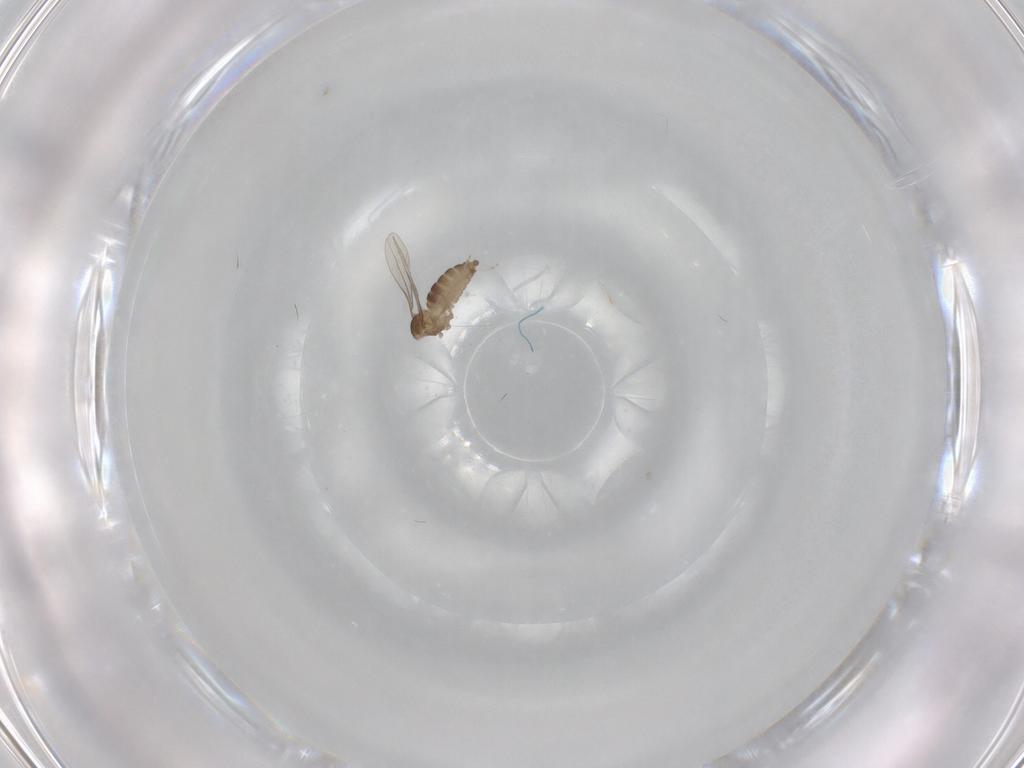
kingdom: Animalia
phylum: Arthropoda
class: Insecta
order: Diptera
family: Cecidomyiidae
